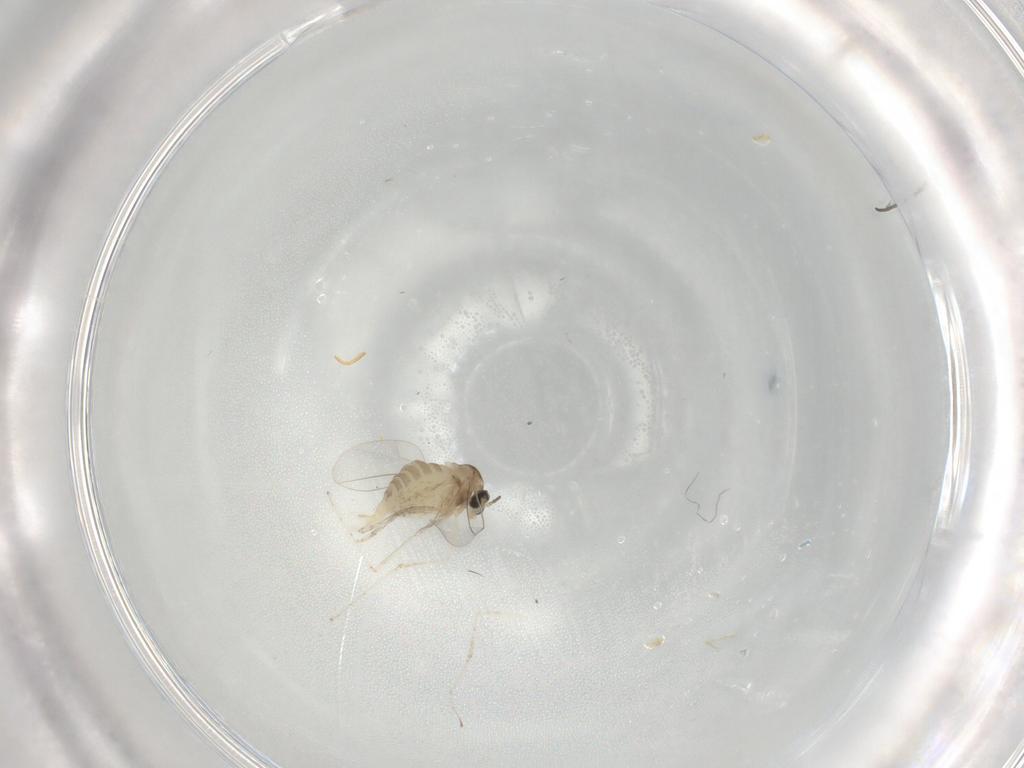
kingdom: Animalia
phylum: Arthropoda
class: Insecta
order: Diptera
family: Cecidomyiidae
